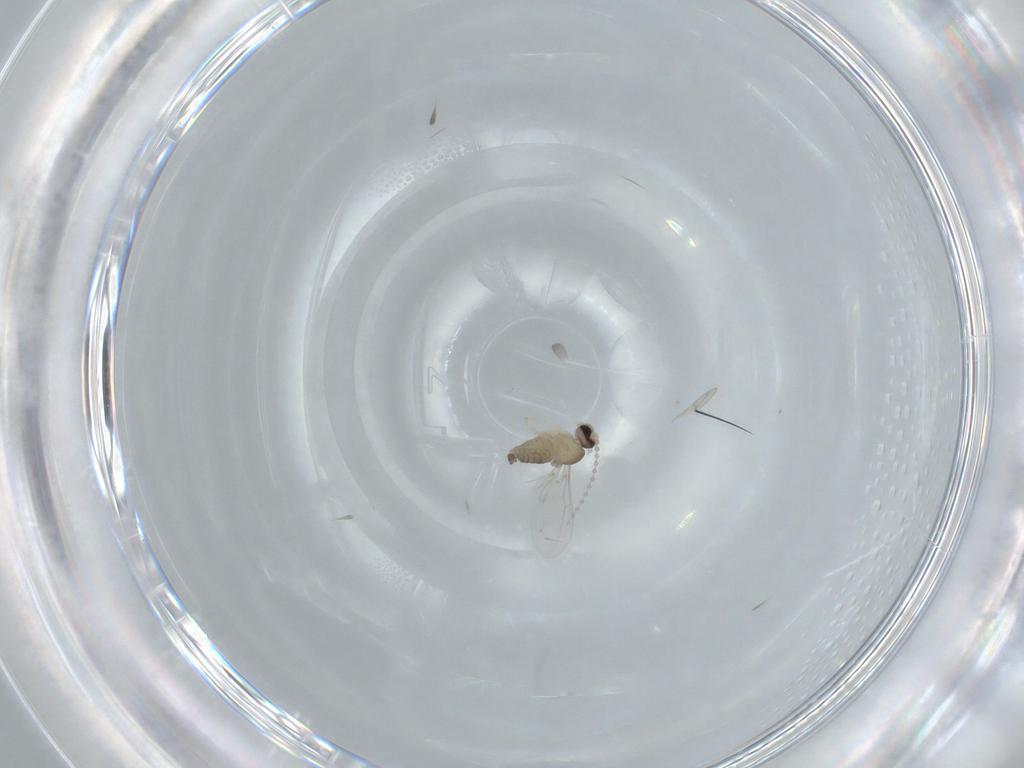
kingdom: Animalia
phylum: Arthropoda
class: Insecta
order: Diptera
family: Cecidomyiidae
